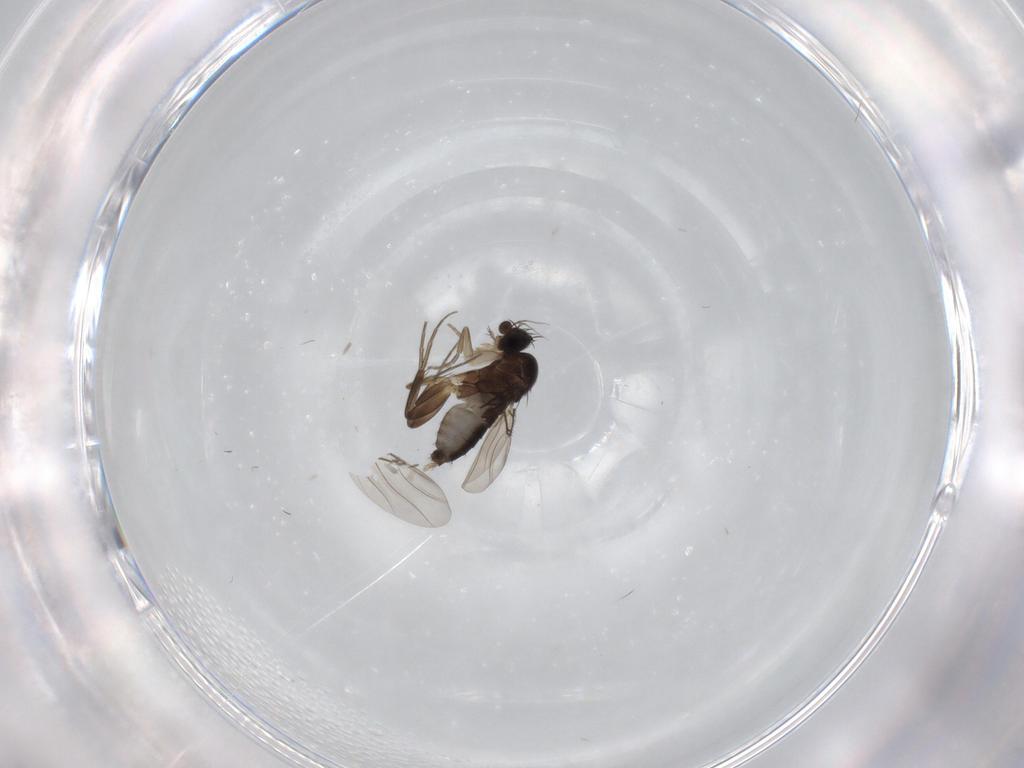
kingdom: Animalia
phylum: Arthropoda
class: Insecta
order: Diptera
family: Phoridae
